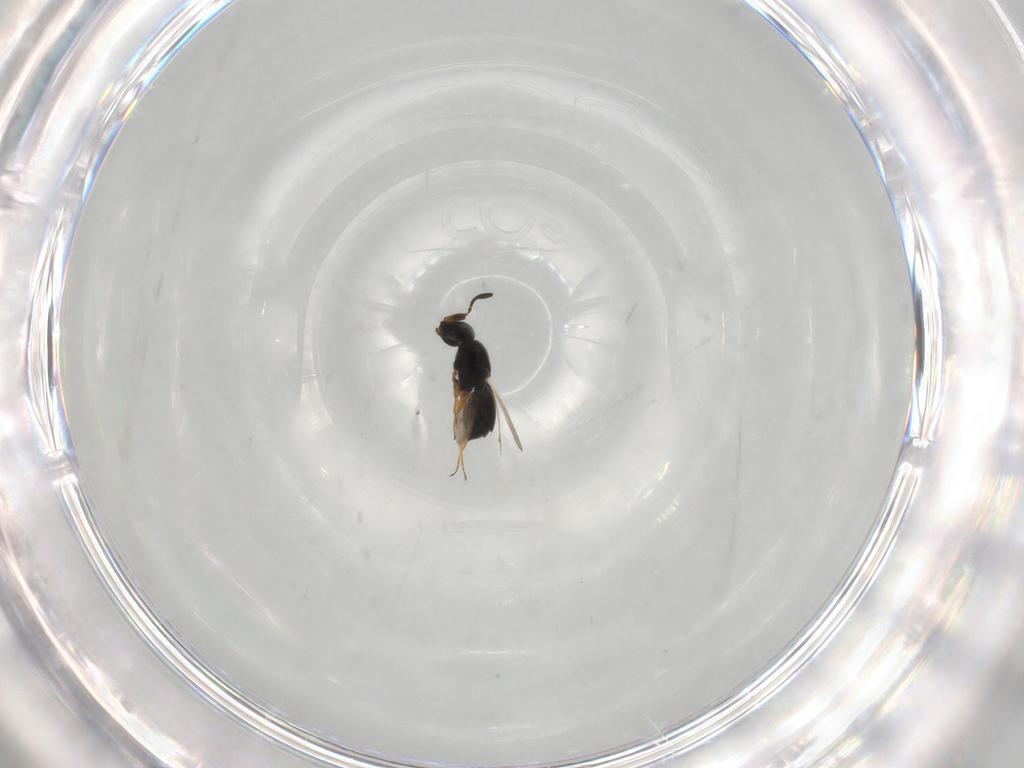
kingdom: Animalia
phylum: Arthropoda
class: Insecta
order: Hymenoptera
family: Scelionidae
